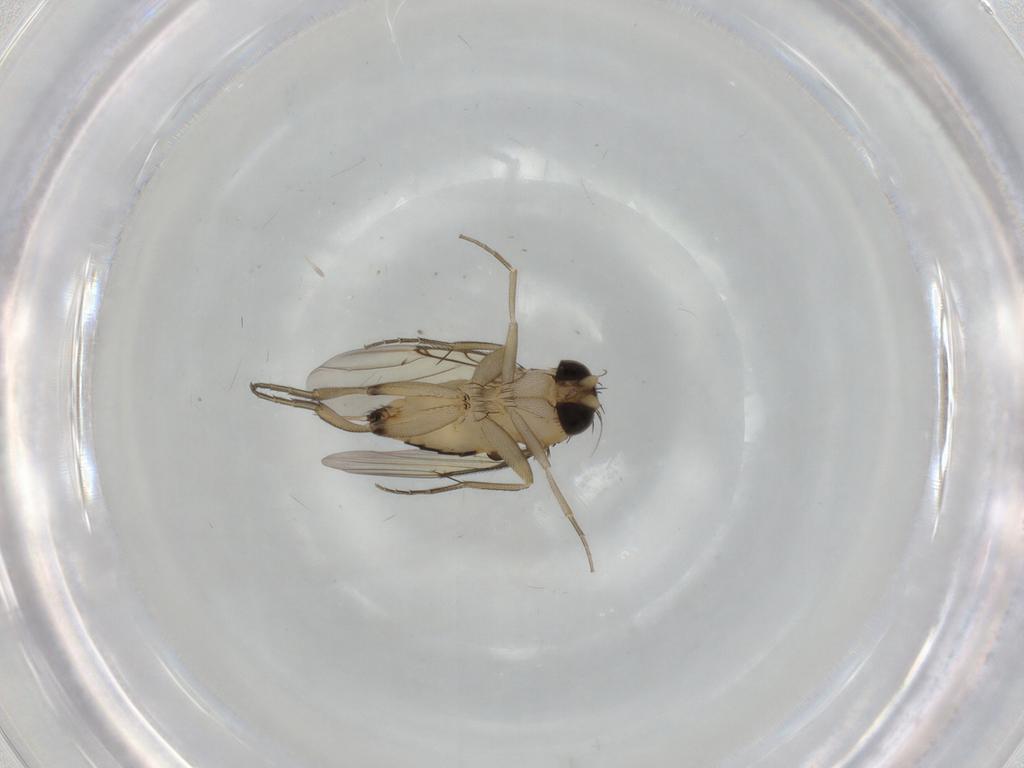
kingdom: Animalia
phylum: Arthropoda
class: Insecta
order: Diptera
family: Phoridae
